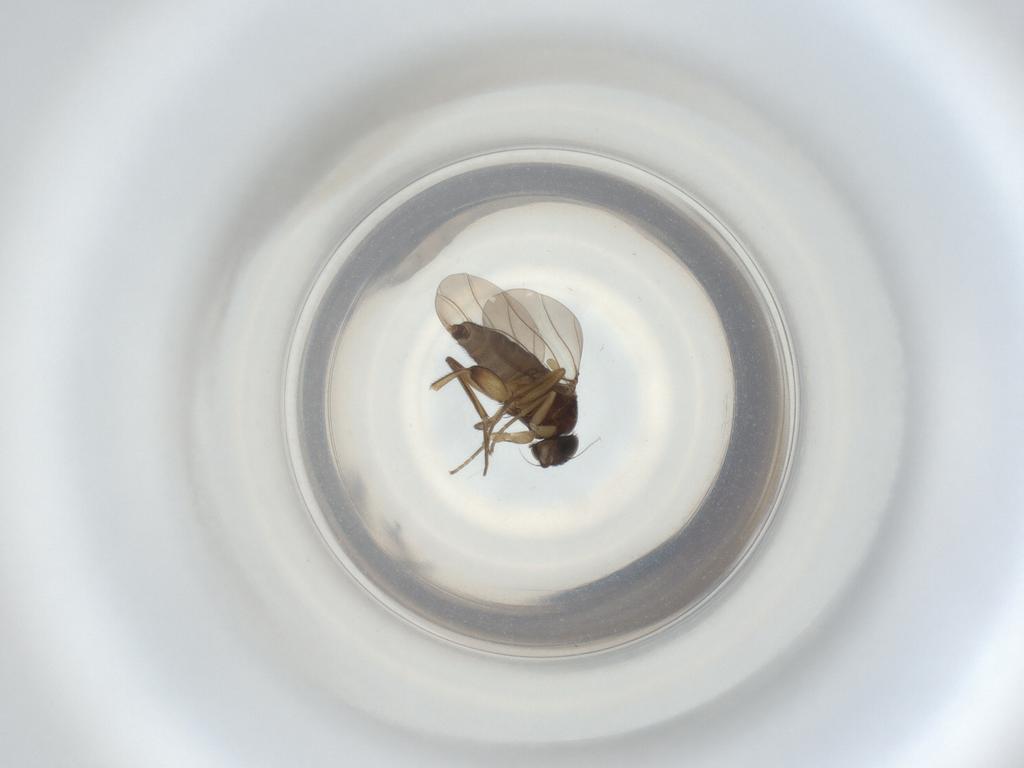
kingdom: Animalia
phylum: Arthropoda
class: Insecta
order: Diptera
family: Phoridae
